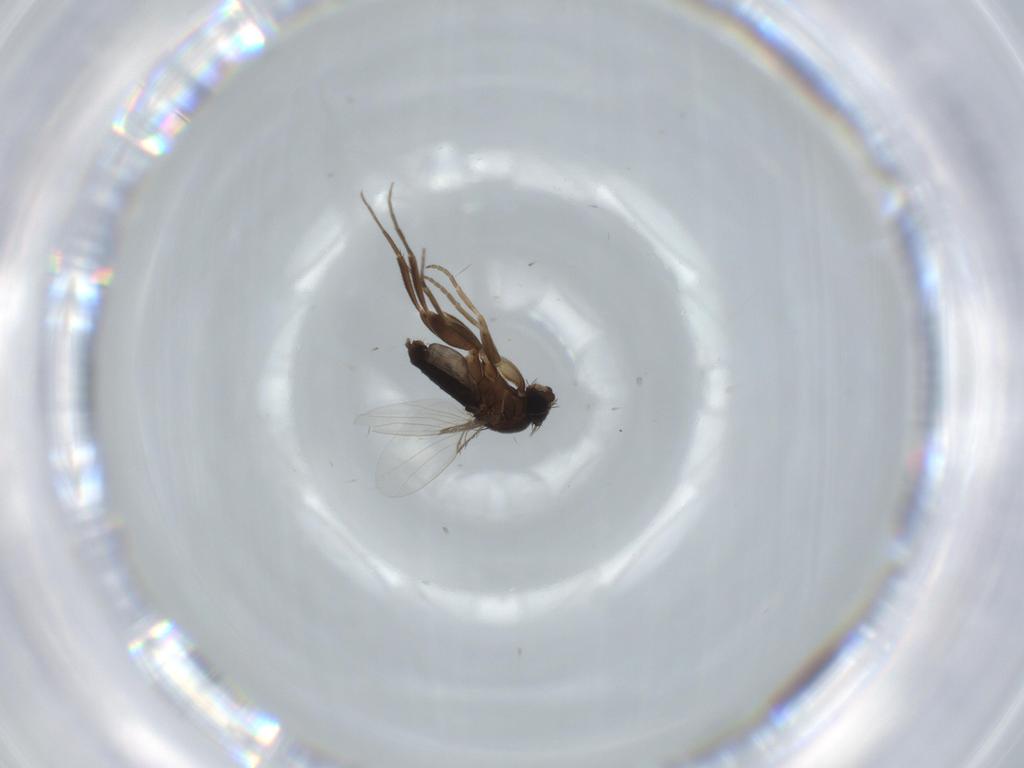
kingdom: Animalia
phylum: Arthropoda
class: Insecta
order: Diptera
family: Phoridae
